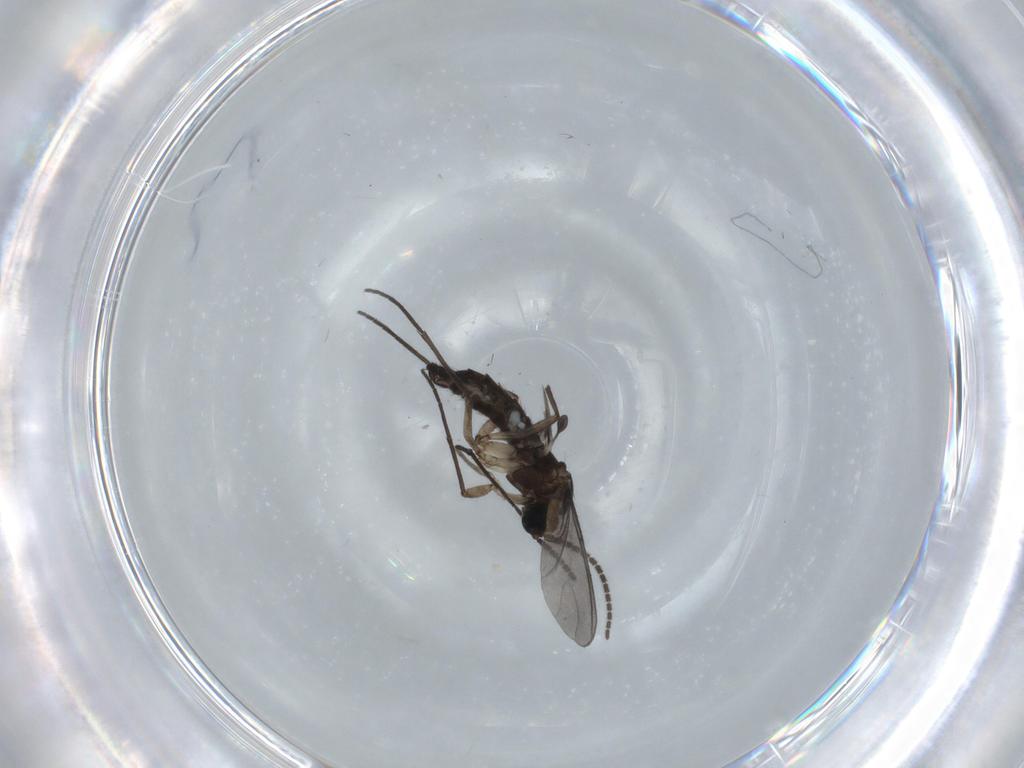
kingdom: Animalia
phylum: Arthropoda
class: Insecta
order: Diptera
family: Sciaridae
